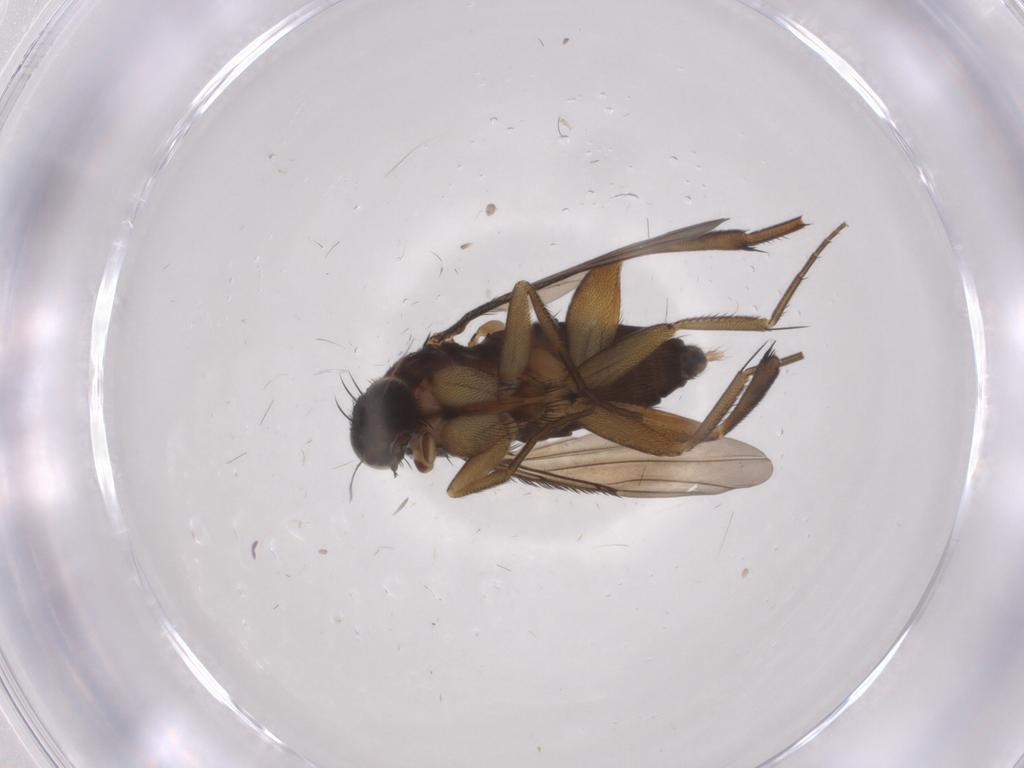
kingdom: Animalia
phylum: Arthropoda
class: Insecta
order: Diptera
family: Phoridae
